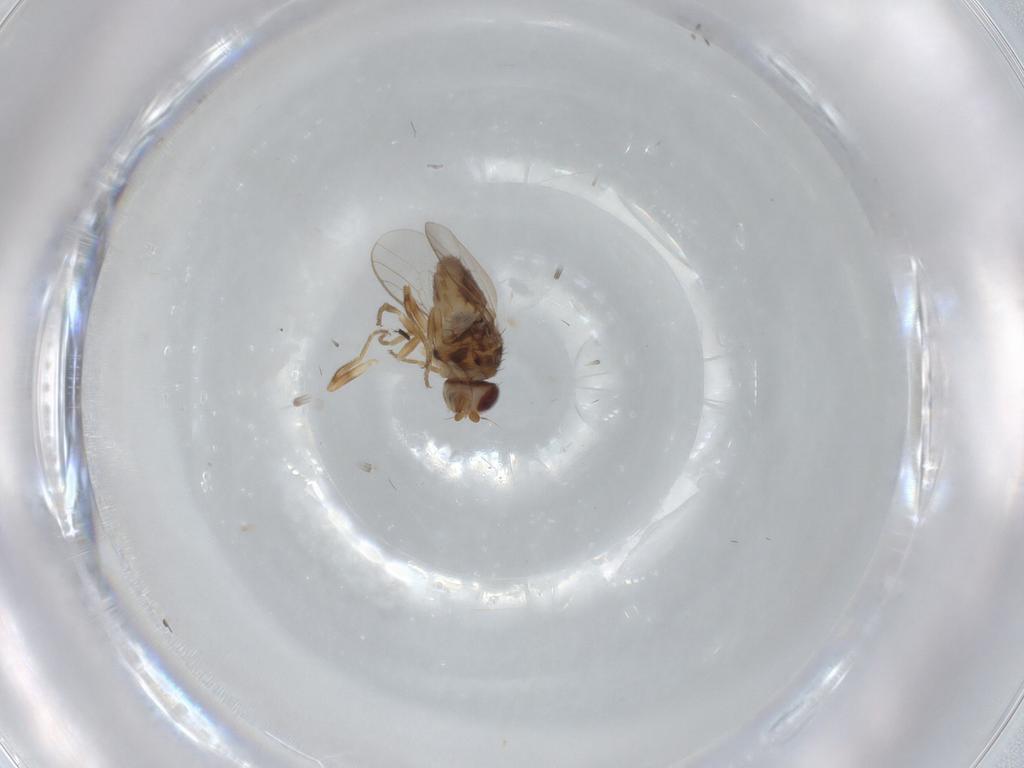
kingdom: Animalia
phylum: Arthropoda
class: Insecta
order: Diptera
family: Chloropidae
